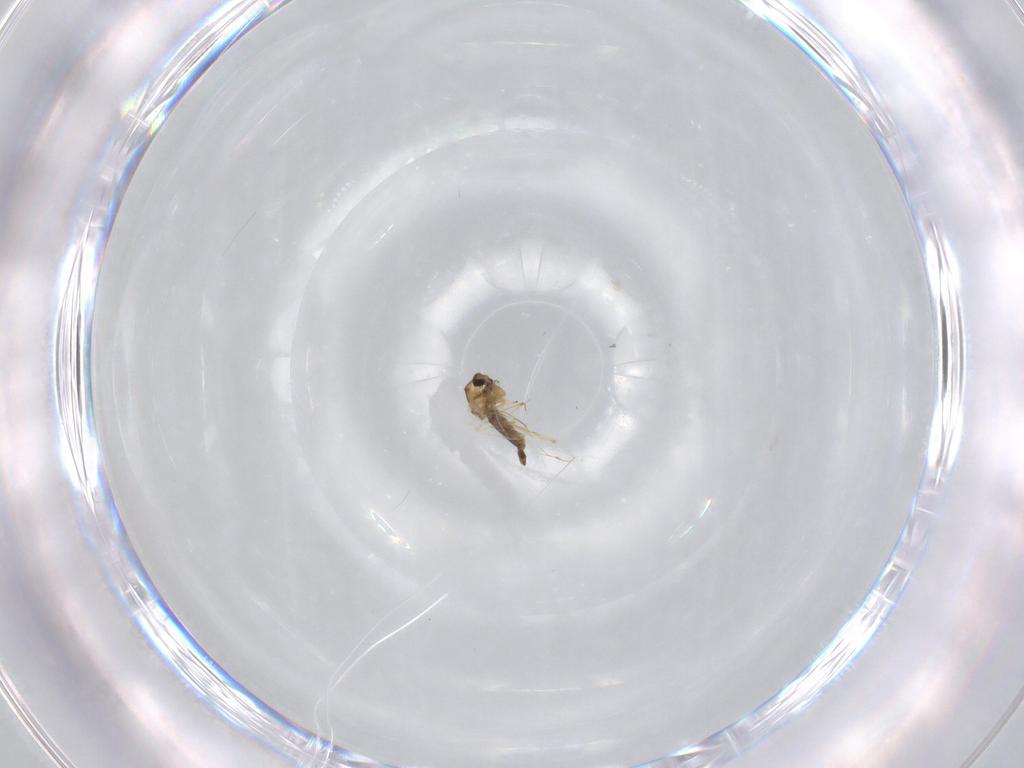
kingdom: Animalia
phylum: Arthropoda
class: Insecta
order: Diptera
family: Chironomidae
